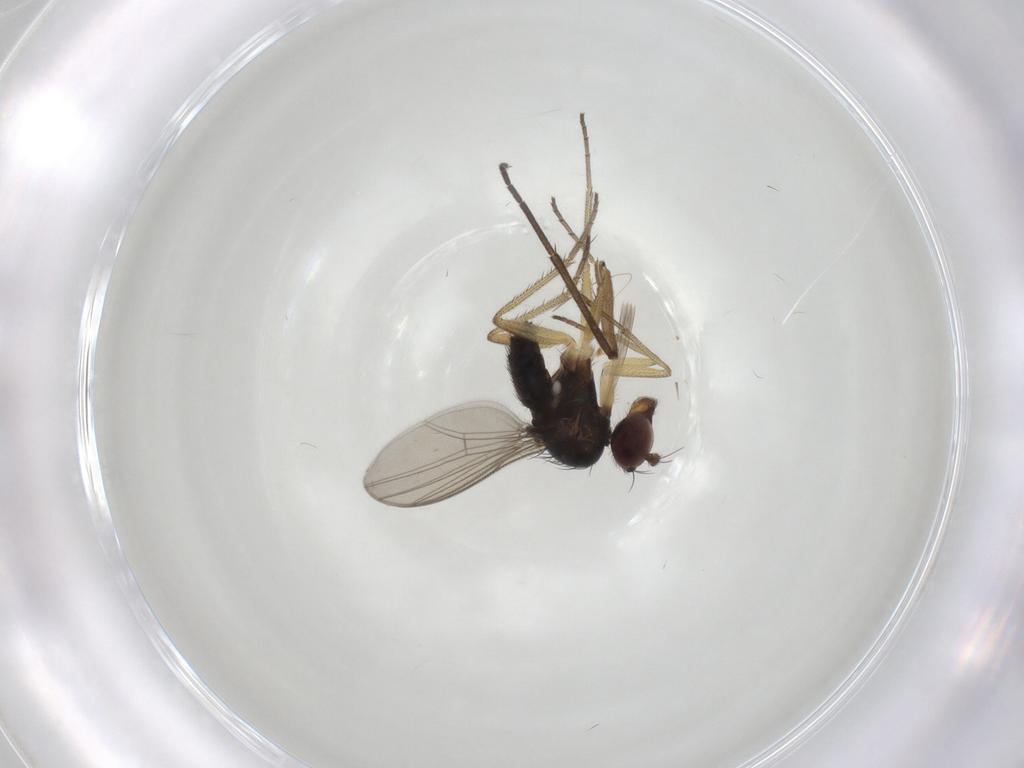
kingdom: Animalia
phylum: Arthropoda
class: Insecta
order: Diptera
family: Dolichopodidae
